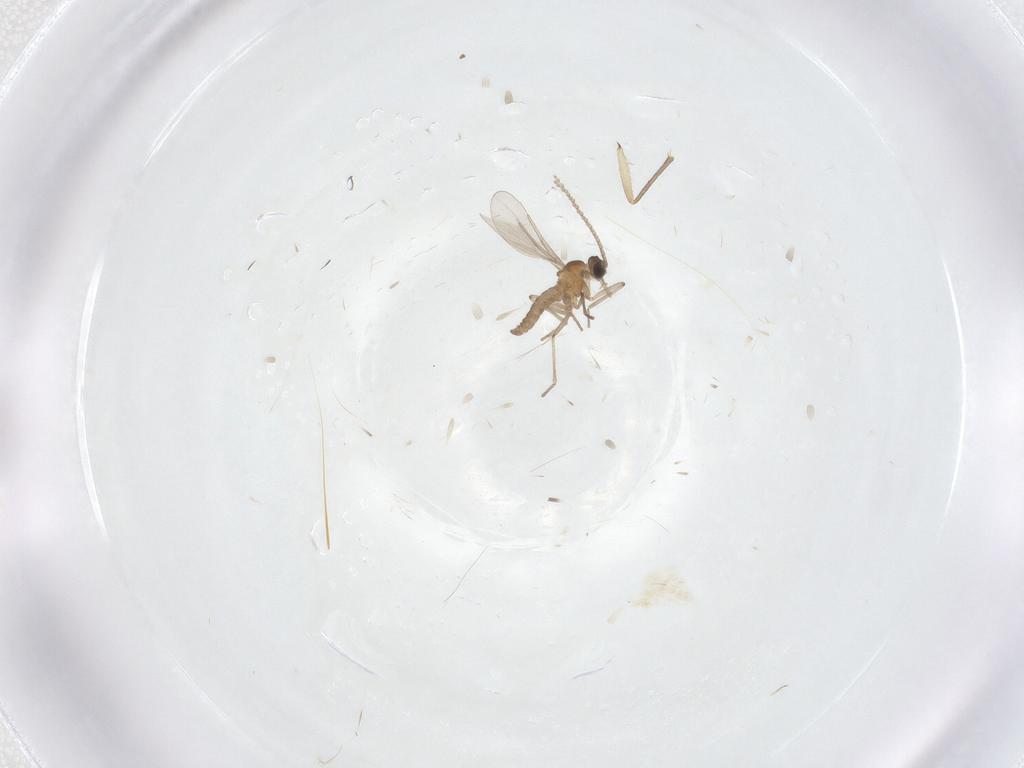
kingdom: Animalia
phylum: Arthropoda
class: Insecta
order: Diptera
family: Cecidomyiidae
